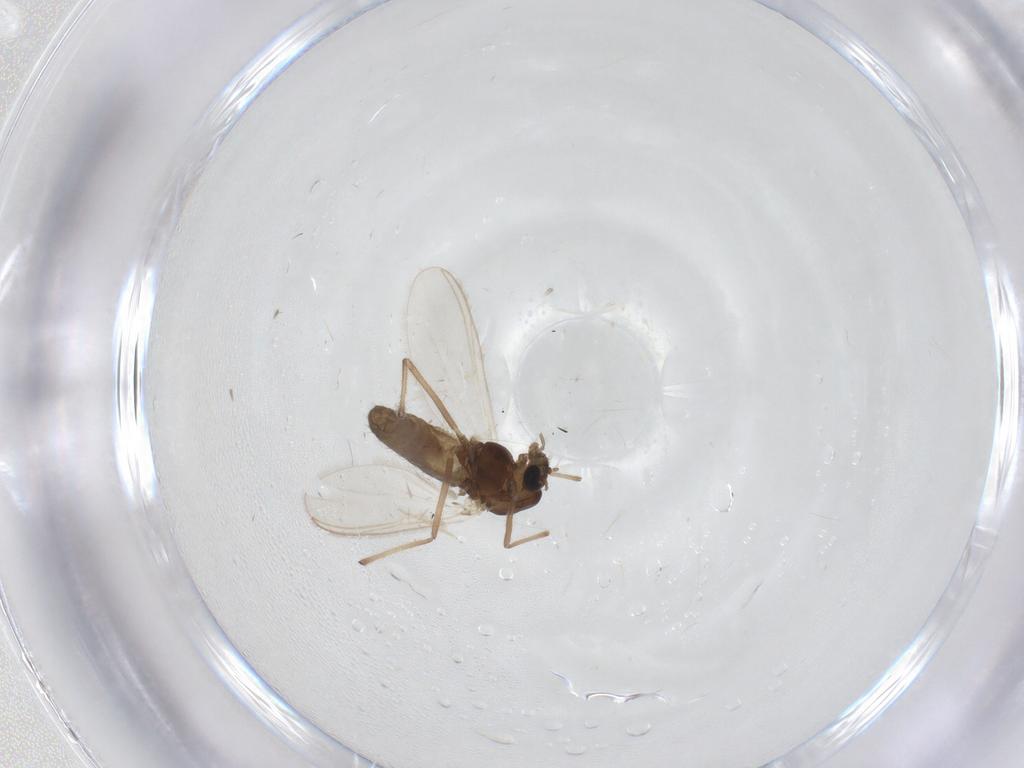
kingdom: Animalia
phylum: Arthropoda
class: Insecta
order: Diptera
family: Chironomidae
